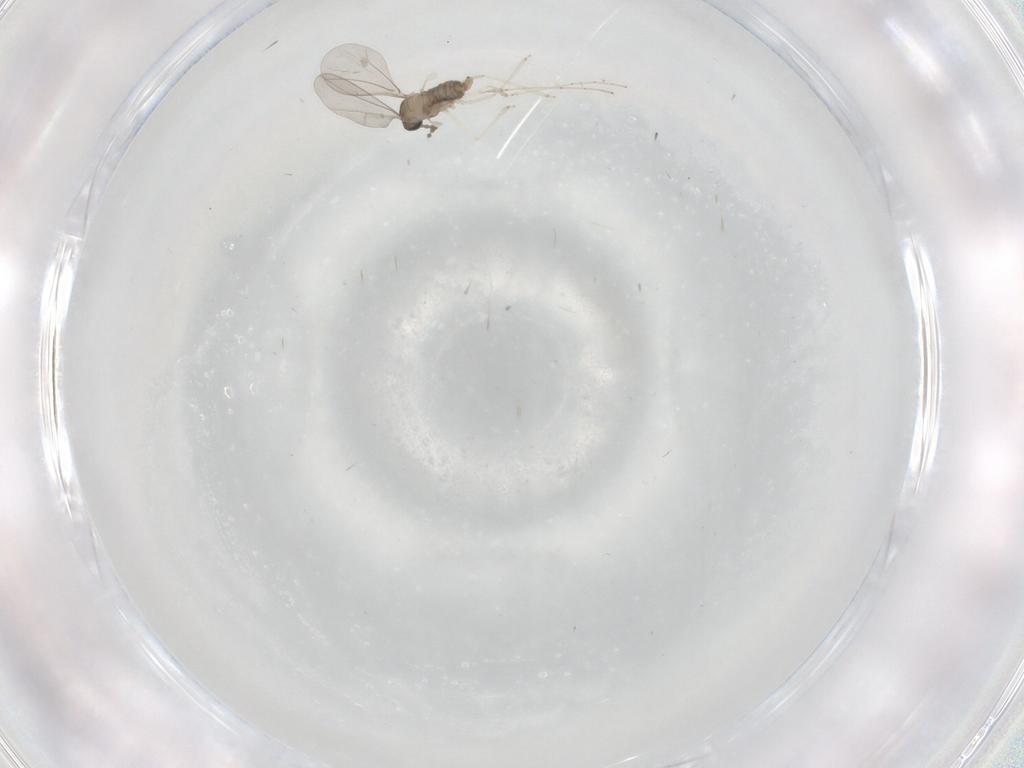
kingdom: Animalia
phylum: Arthropoda
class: Insecta
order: Diptera
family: Cecidomyiidae
